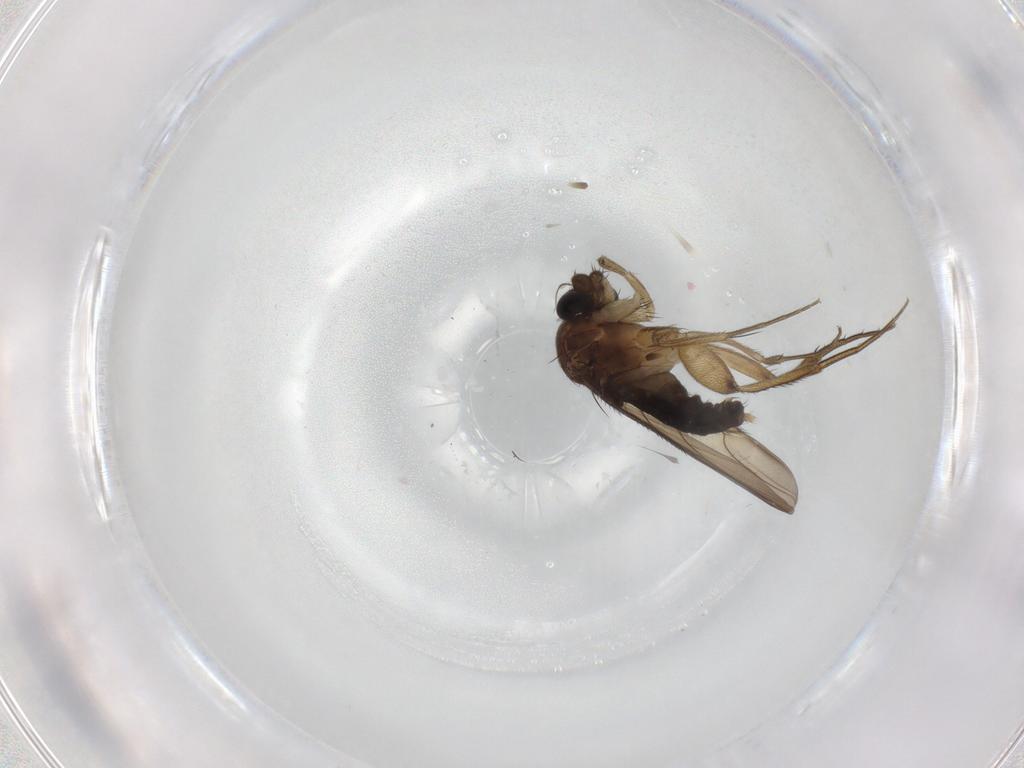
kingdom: Animalia
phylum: Arthropoda
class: Insecta
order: Diptera
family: Phoridae
